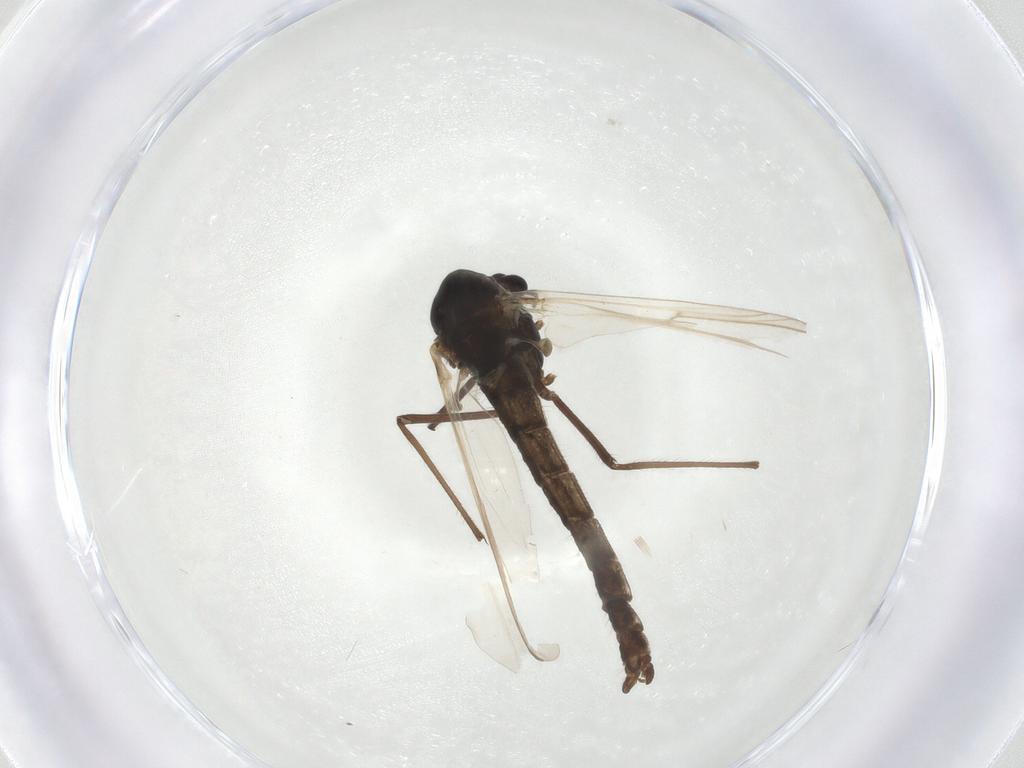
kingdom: Animalia
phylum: Arthropoda
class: Insecta
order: Diptera
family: Chironomidae
